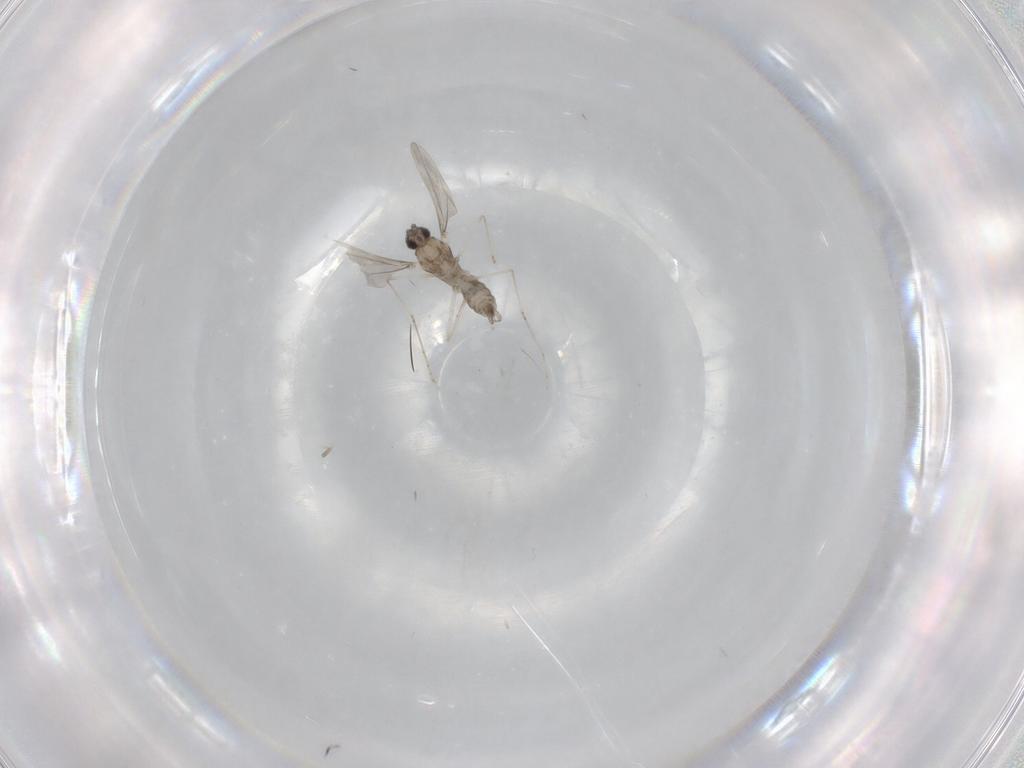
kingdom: Animalia
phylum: Arthropoda
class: Insecta
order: Diptera
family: Cecidomyiidae
